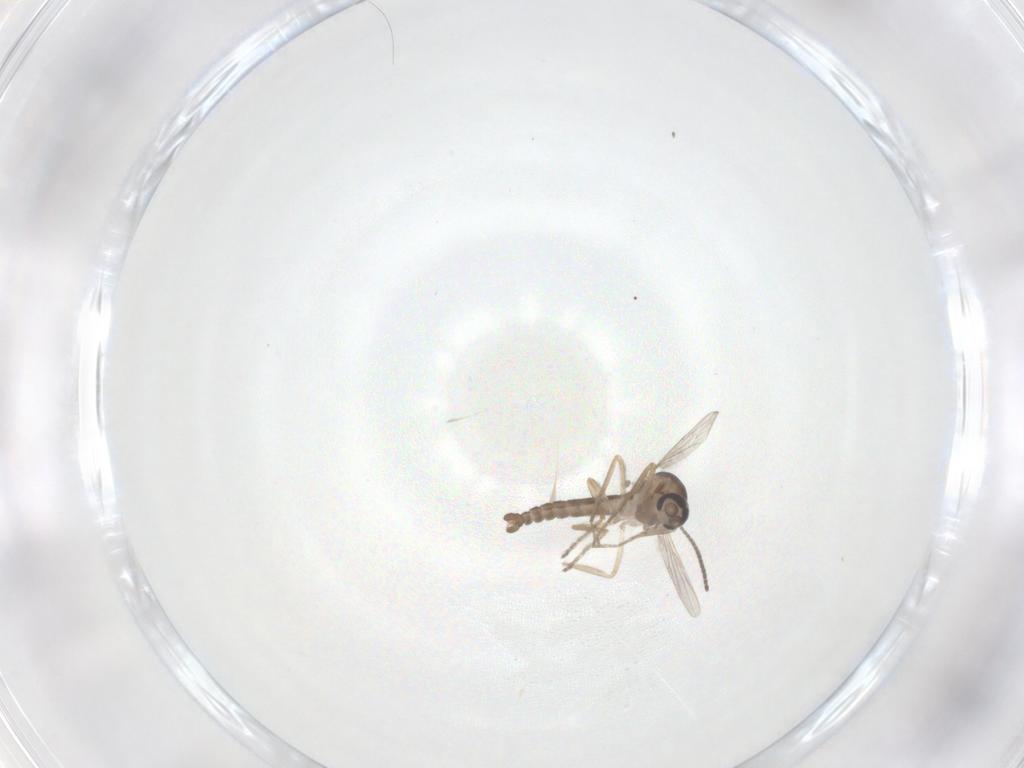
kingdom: Animalia
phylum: Arthropoda
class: Insecta
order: Diptera
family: Ceratopogonidae
